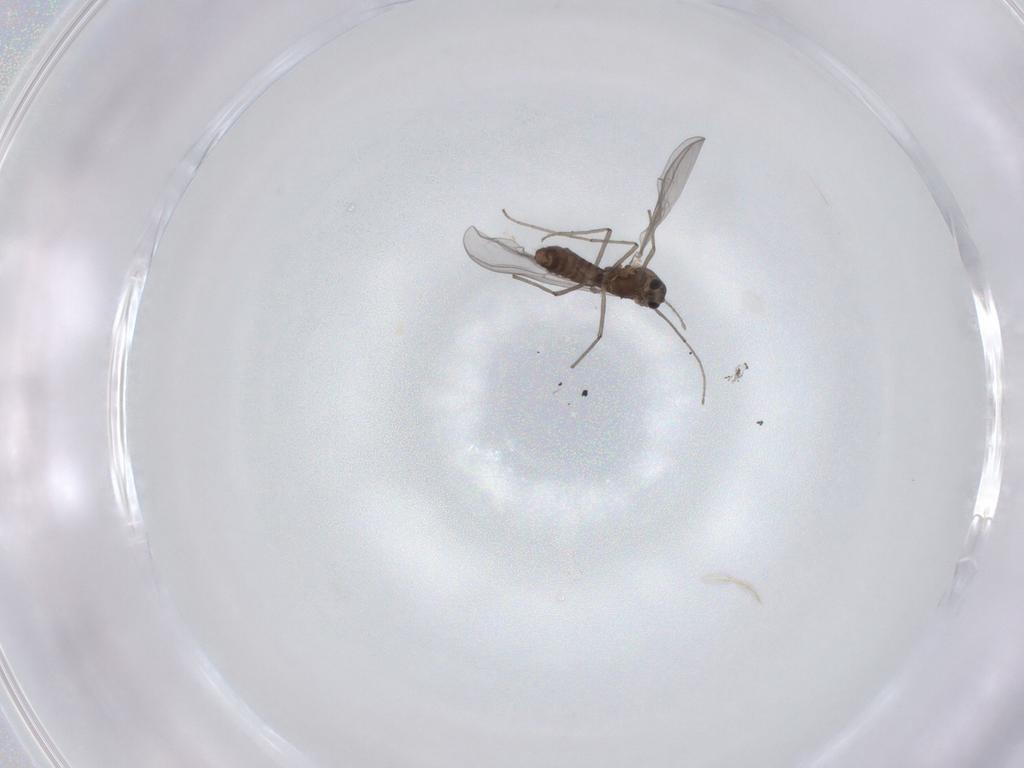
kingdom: Animalia
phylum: Arthropoda
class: Insecta
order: Diptera
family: Chironomidae
